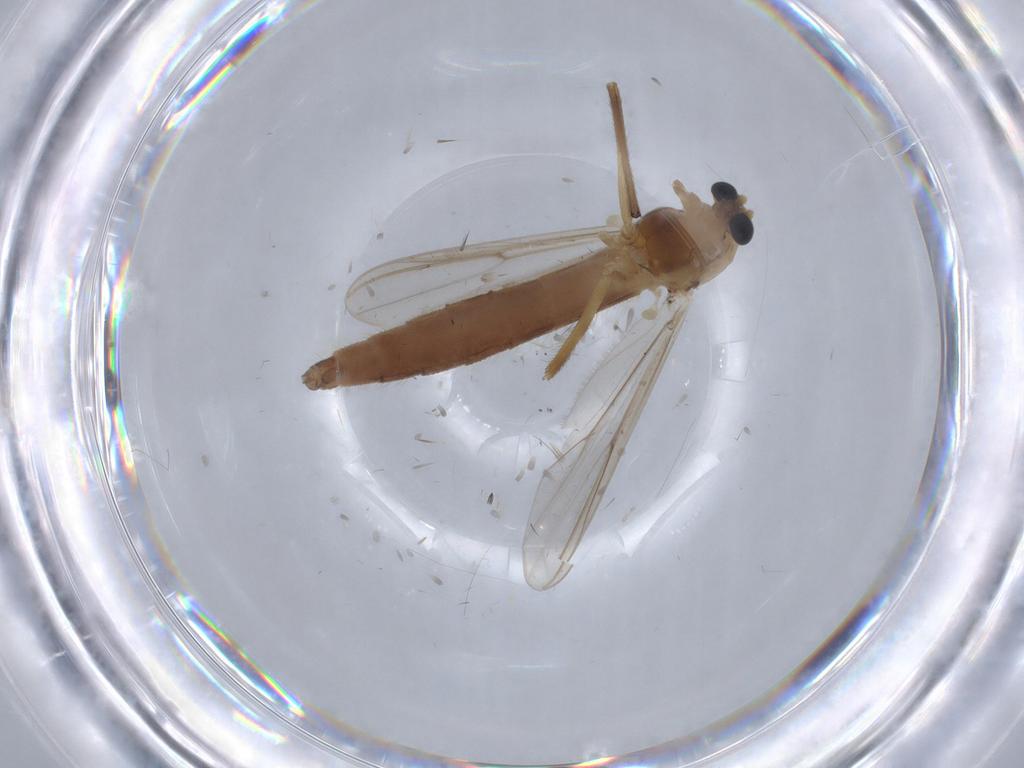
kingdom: Animalia
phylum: Arthropoda
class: Insecta
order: Diptera
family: Chironomidae
